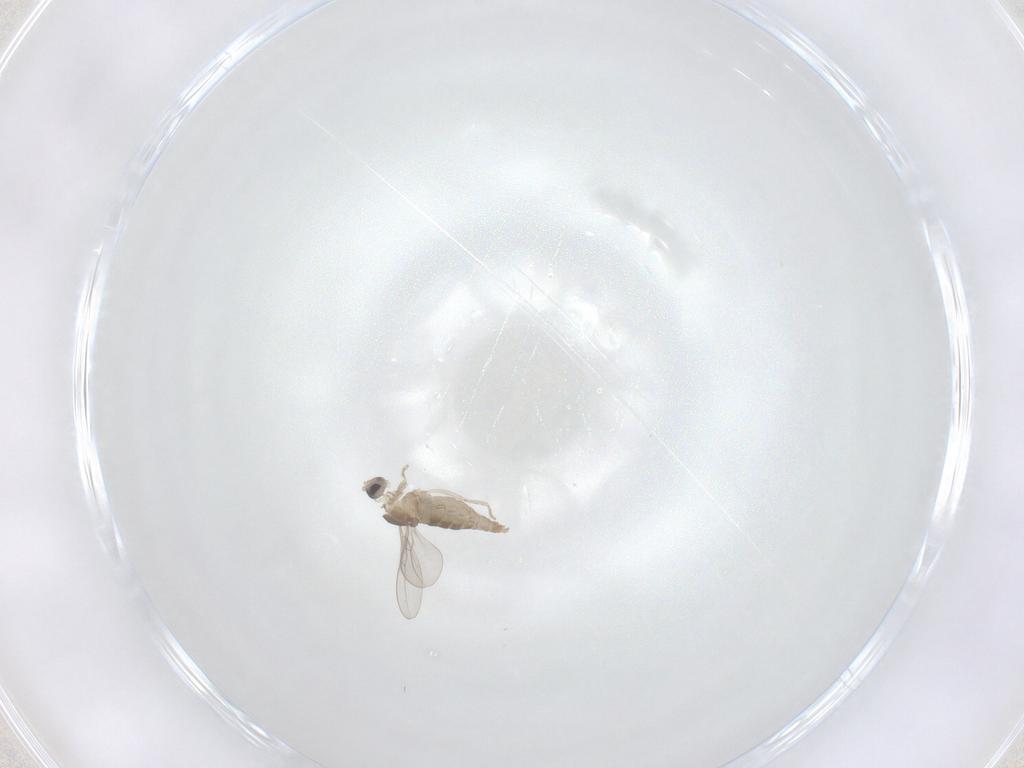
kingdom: Animalia
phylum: Arthropoda
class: Insecta
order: Diptera
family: Cecidomyiidae
